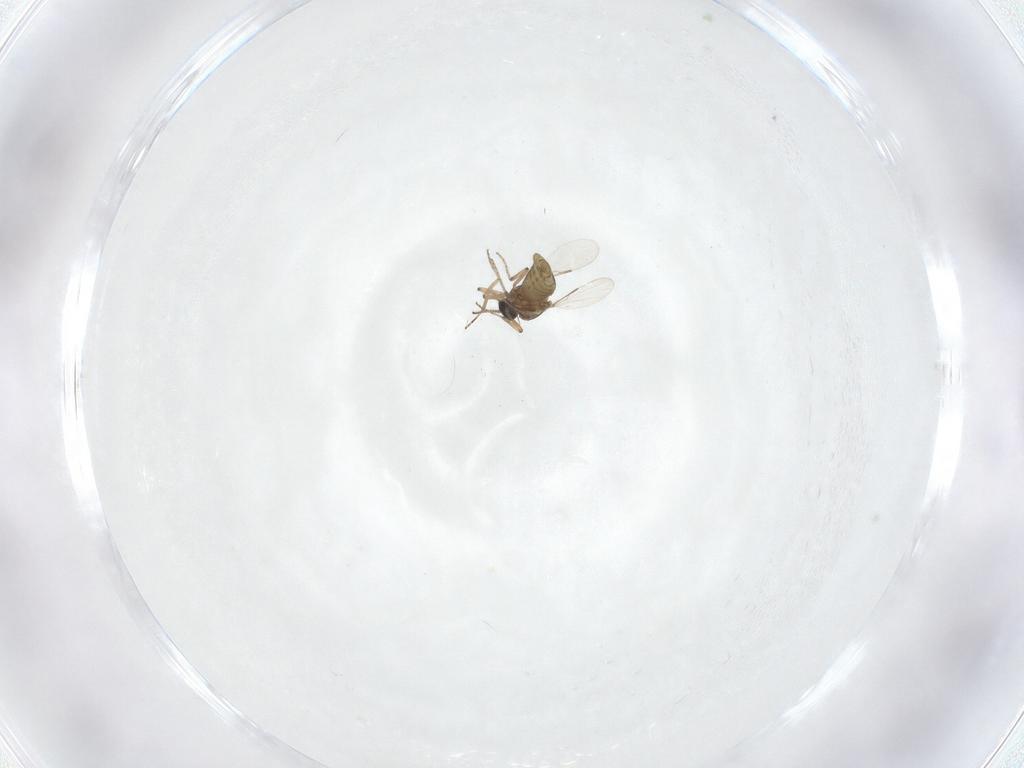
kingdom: Animalia
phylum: Arthropoda
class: Insecta
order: Diptera
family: Ceratopogonidae
